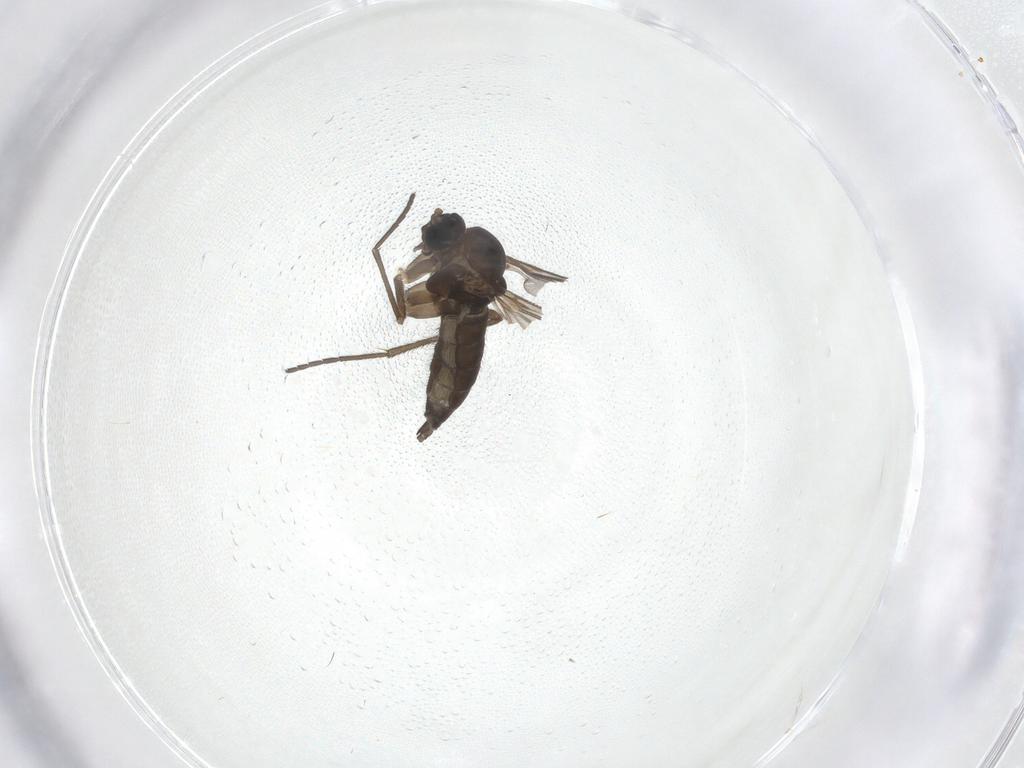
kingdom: Animalia
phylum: Arthropoda
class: Insecta
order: Diptera
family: Sciaridae
